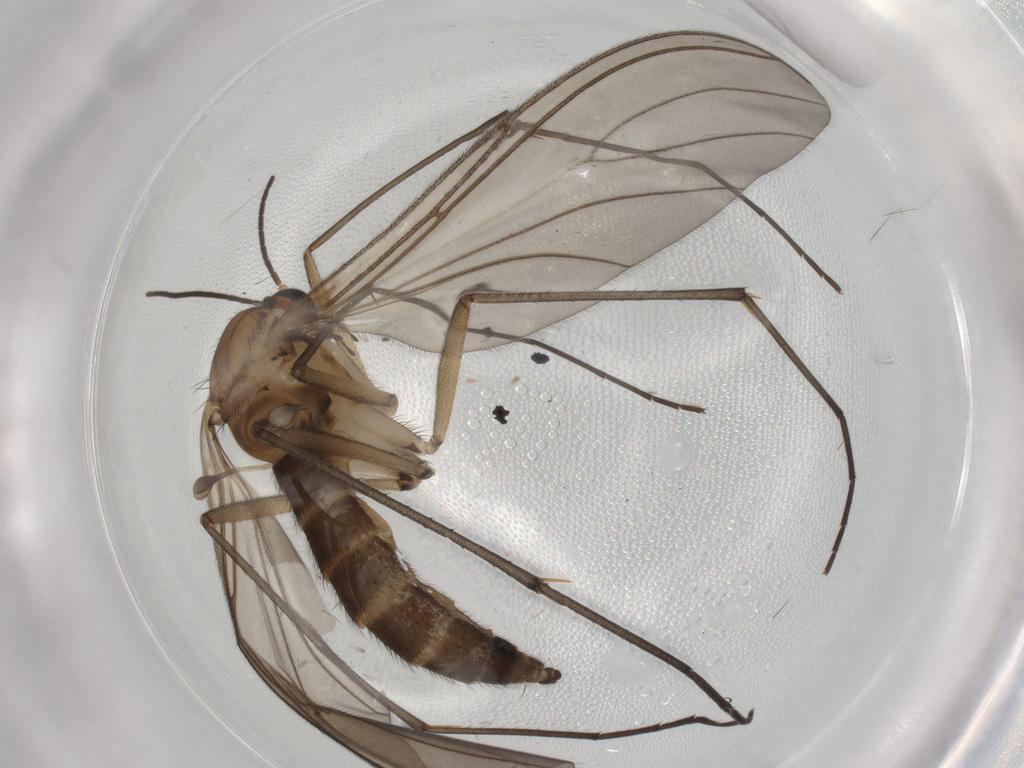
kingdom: Animalia
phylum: Arthropoda
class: Insecta
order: Diptera
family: Sciaridae
